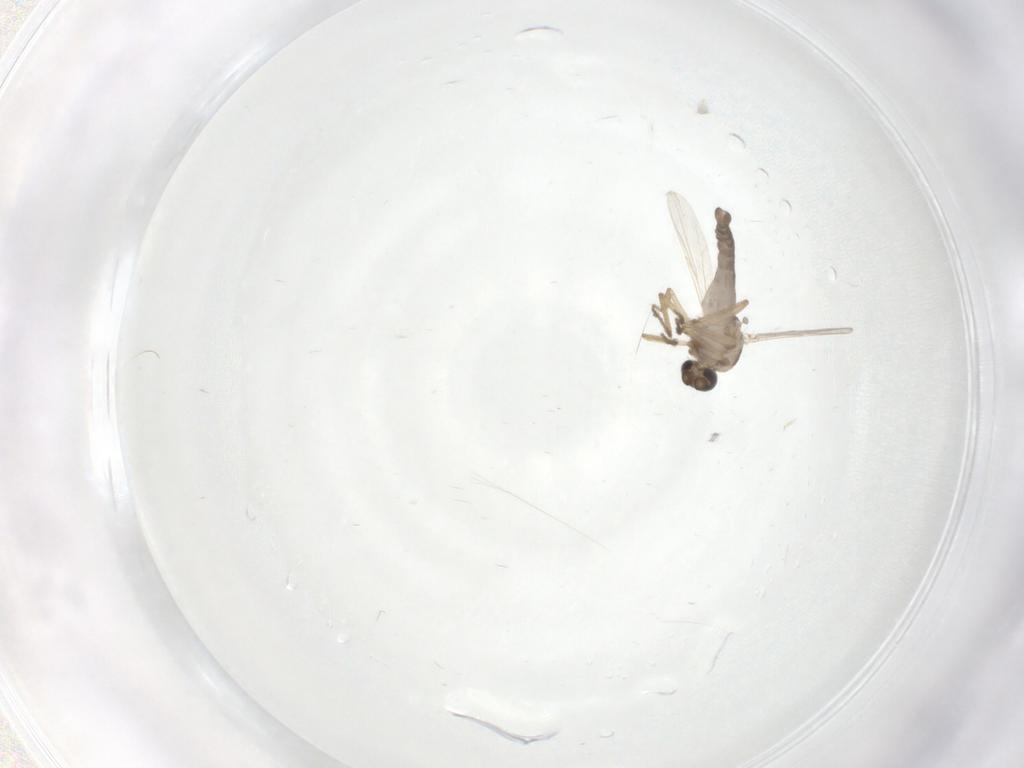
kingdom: Animalia
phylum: Arthropoda
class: Insecta
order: Diptera
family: Ceratopogonidae
